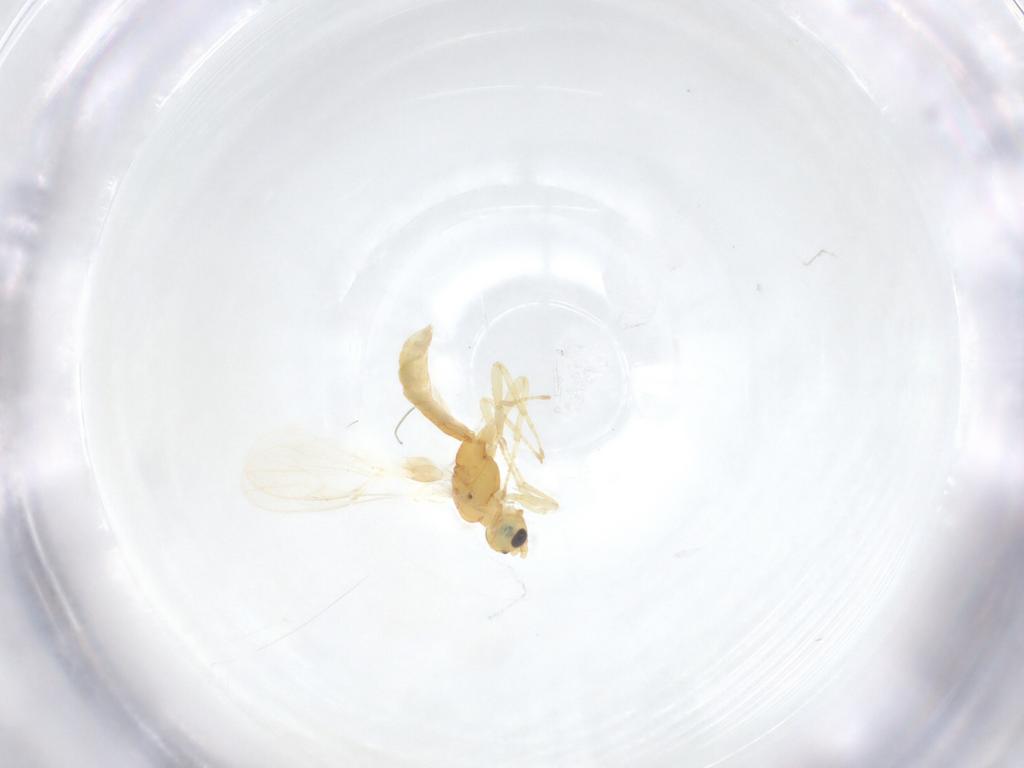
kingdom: Animalia
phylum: Arthropoda
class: Insecta
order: Hymenoptera
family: Braconidae
